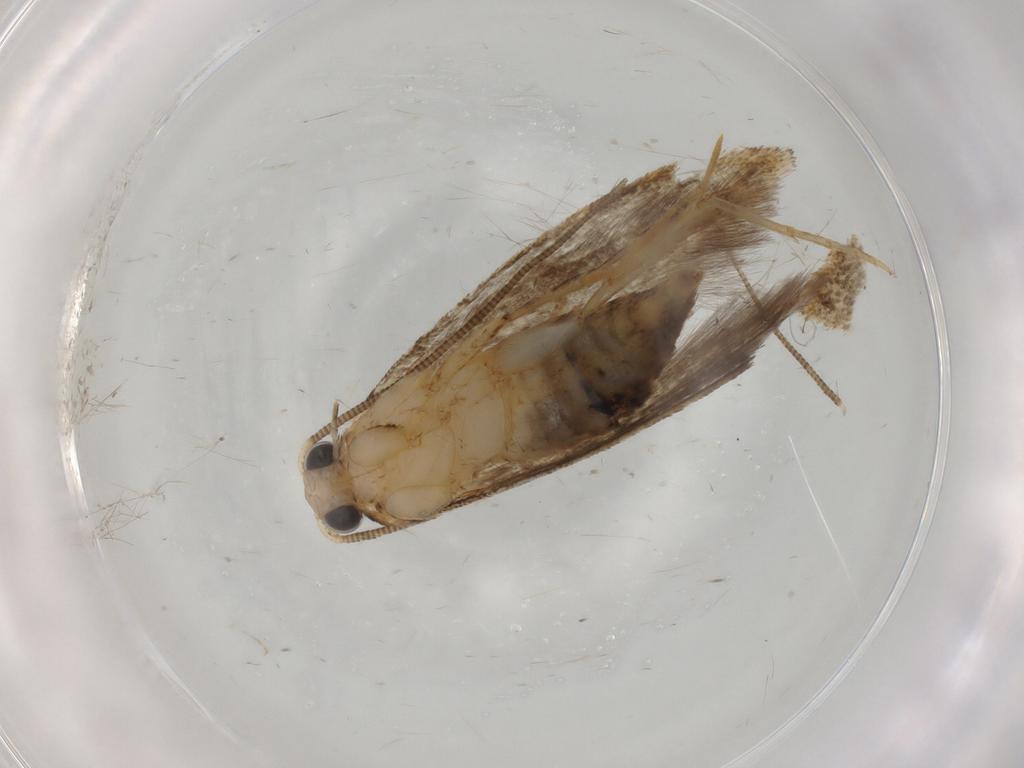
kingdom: Animalia
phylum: Arthropoda
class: Insecta
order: Lepidoptera
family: Tineidae
